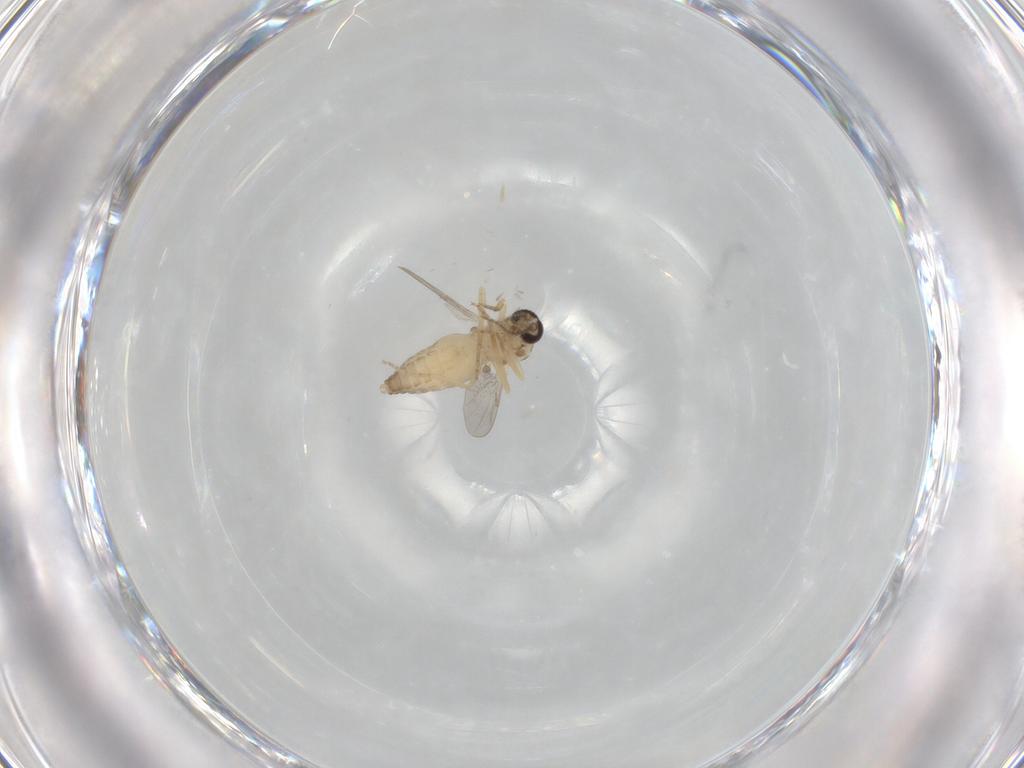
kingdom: Animalia
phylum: Arthropoda
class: Insecta
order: Diptera
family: Ceratopogonidae
